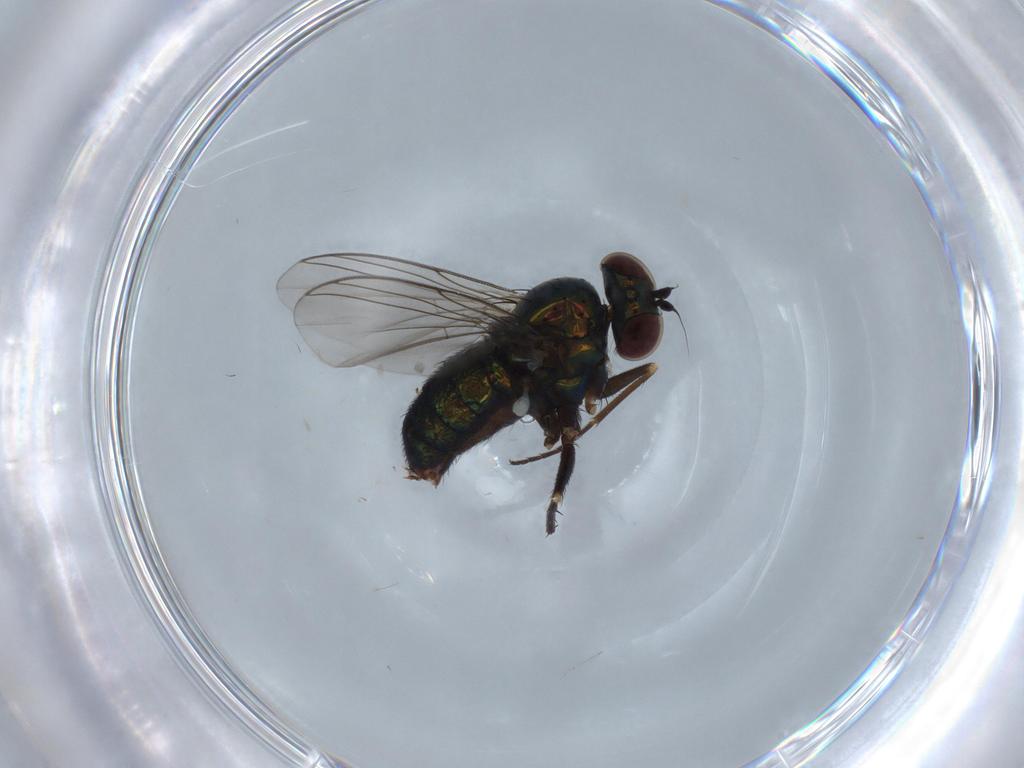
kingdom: Animalia
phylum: Arthropoda
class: Insecta
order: Diptera
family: Dolichopodidae
